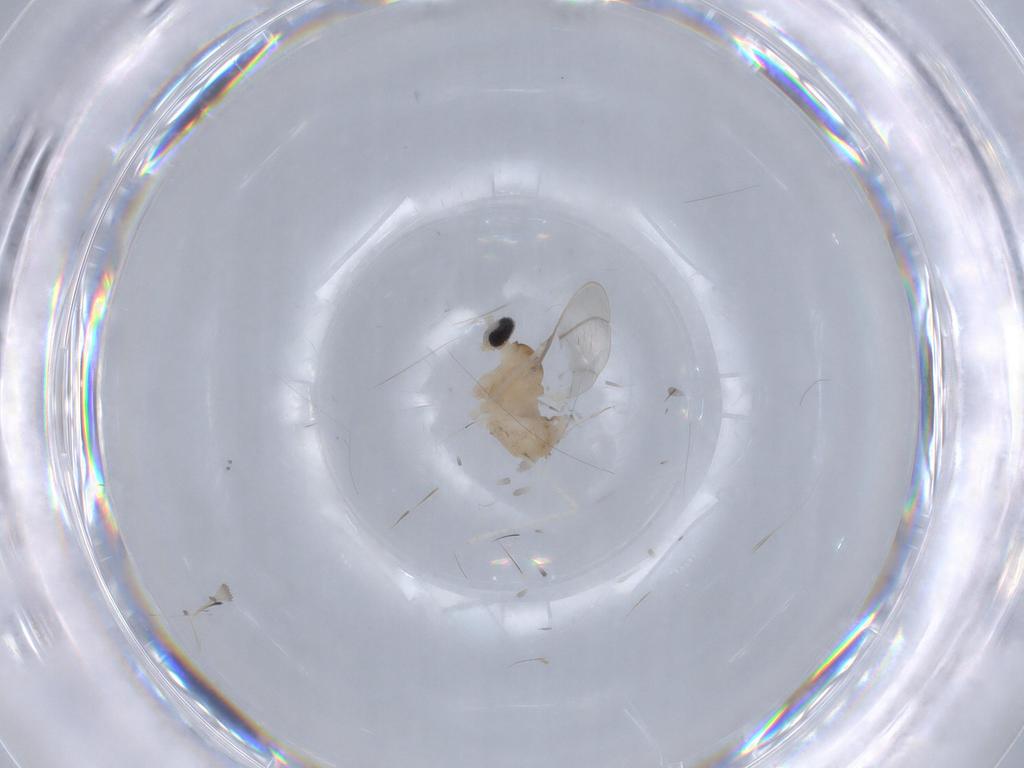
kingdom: Animalia
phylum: Arthropoda
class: Insecta
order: Diptera
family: Cecidomyiidae
